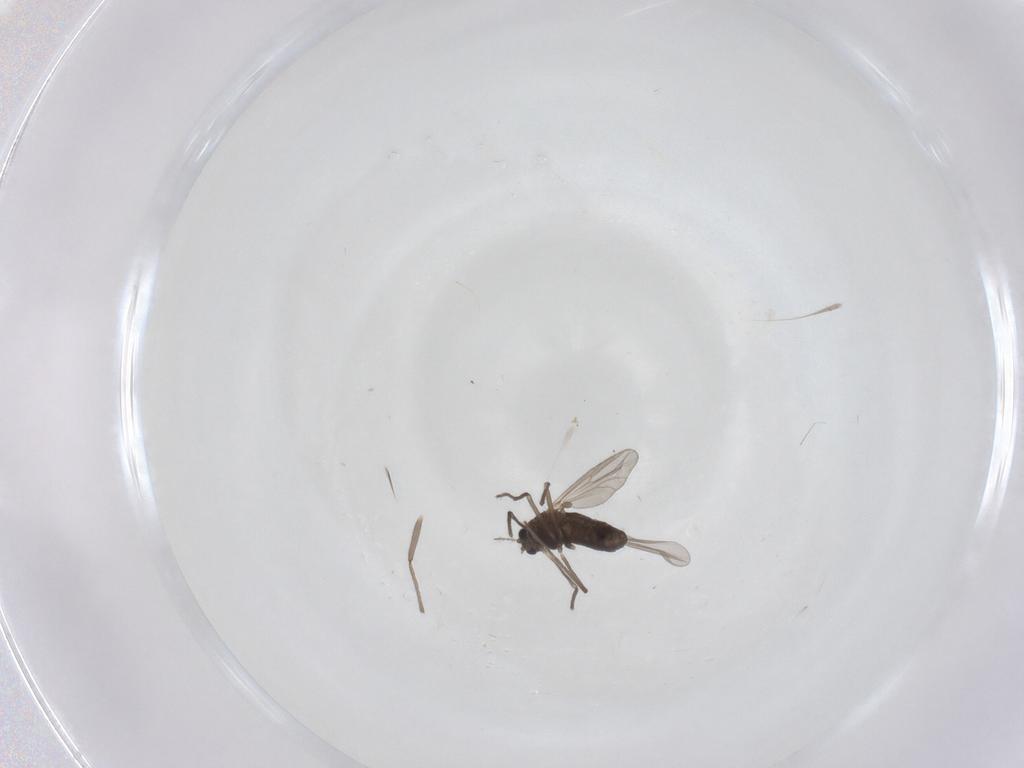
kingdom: Animalia
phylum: Arthropoda
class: Insecta
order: Diptera
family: Chironomidae
